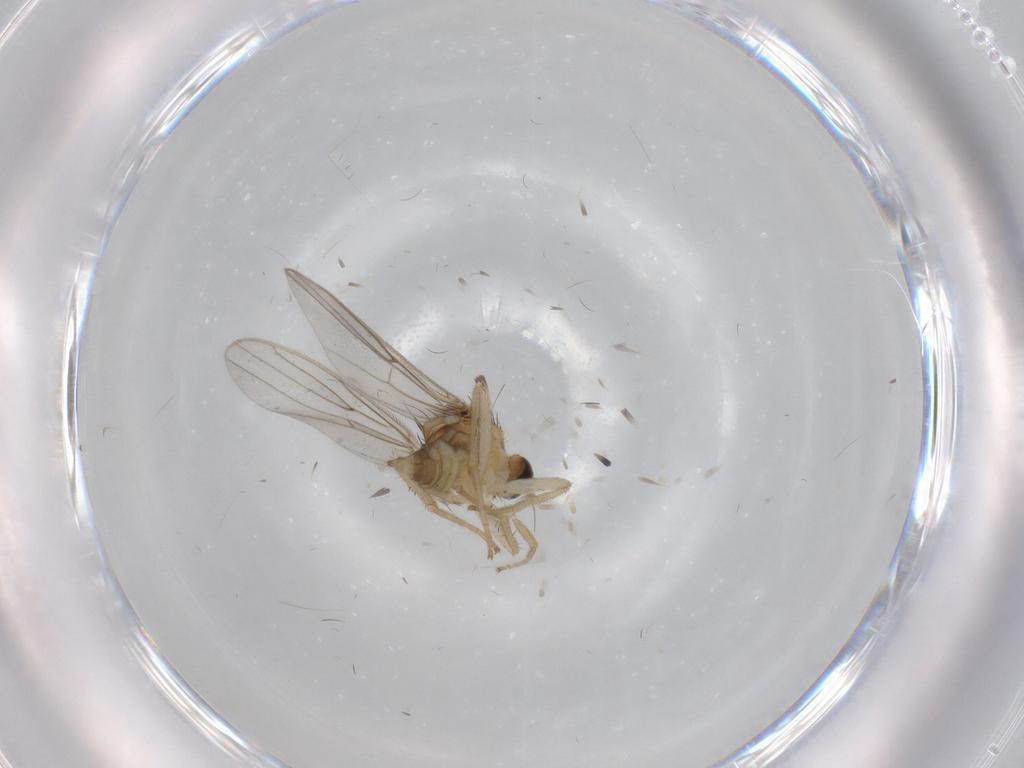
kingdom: Animalia
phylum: Arthropoda
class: Insecta
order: Diptera
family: Hybotidae
